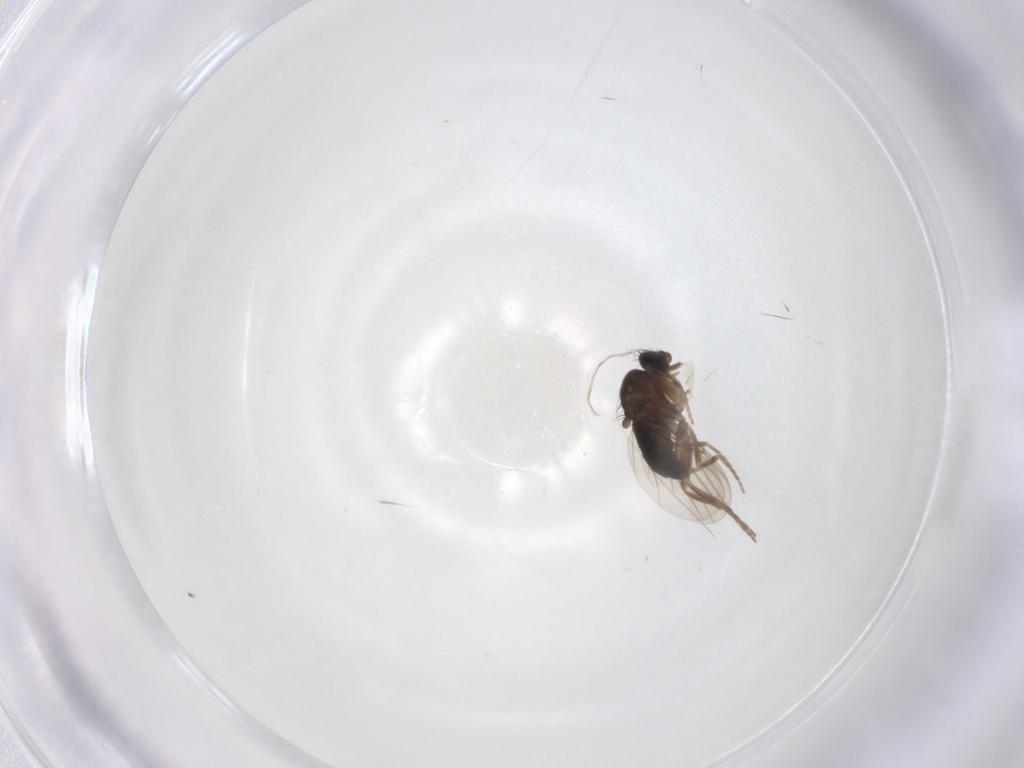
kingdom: Animalia
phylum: Arthropoda
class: Insecta
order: Diptera
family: Phoridae
